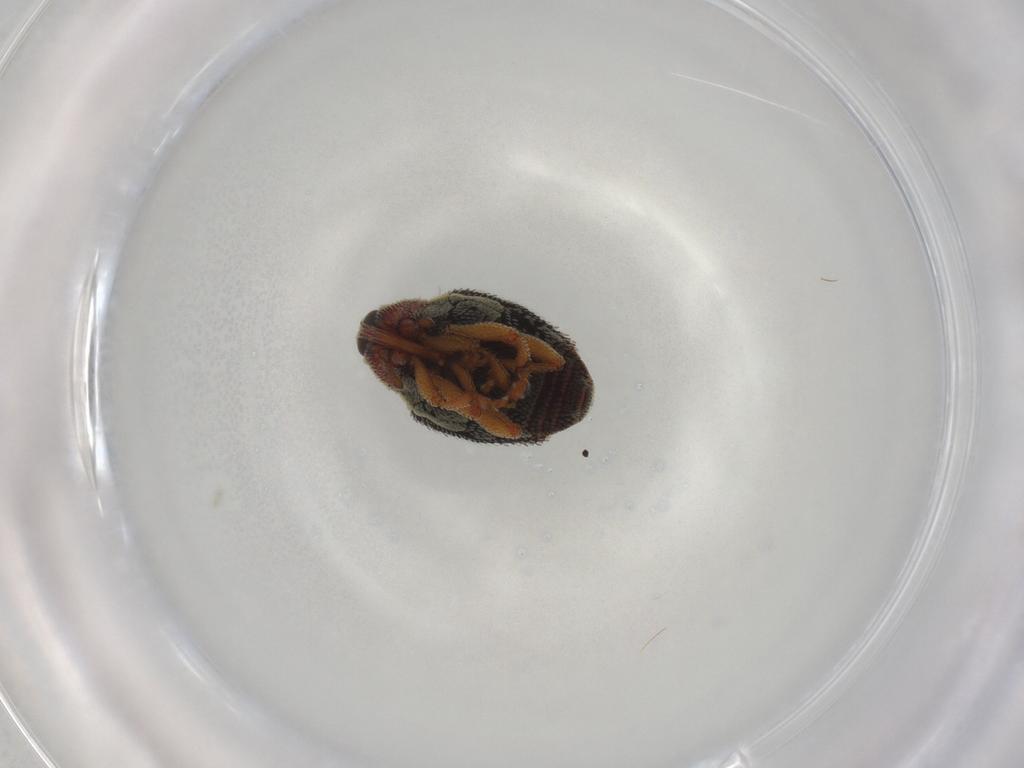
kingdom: Animalia
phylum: Arthropoda
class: Insecta
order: Coleoptera
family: Curculionidae
